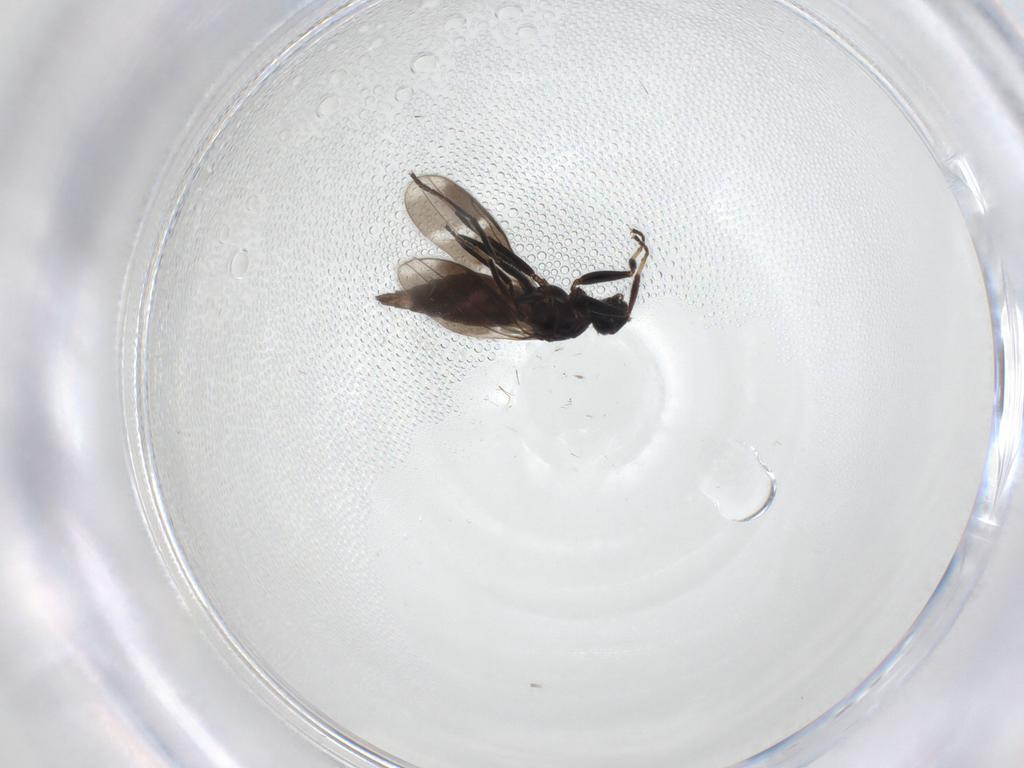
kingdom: Animalia
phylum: Arthropoda
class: Insecta
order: Diptera
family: Hybotidae
